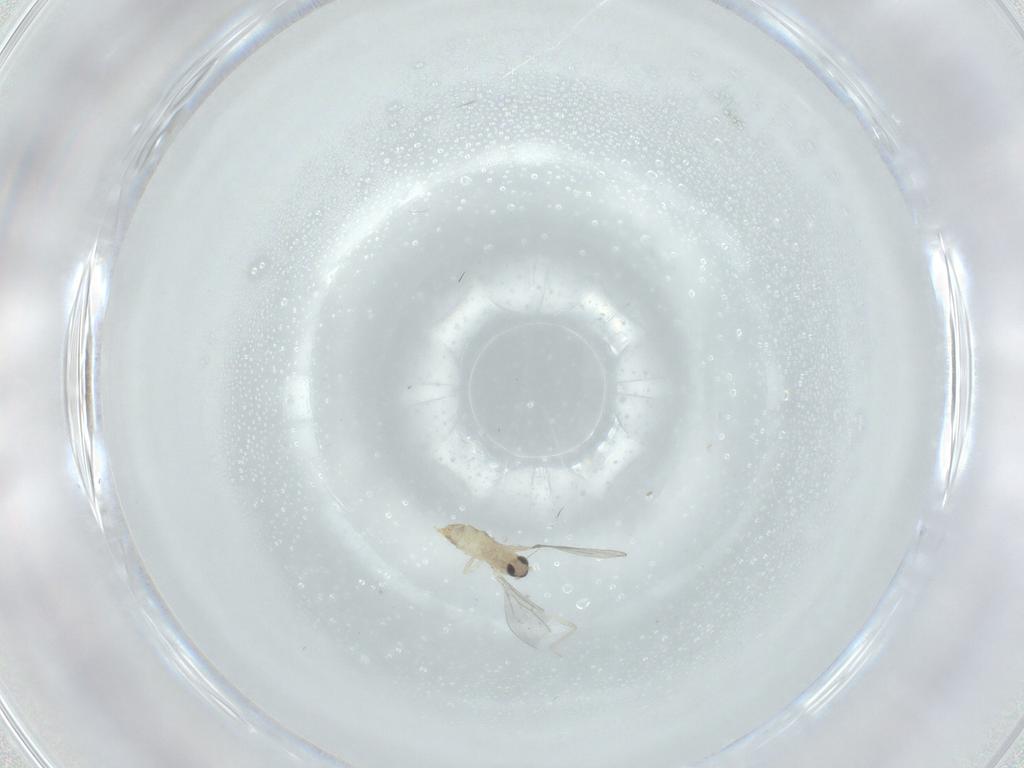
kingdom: Animalia
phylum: Arthropoda
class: Insecta
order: Diptera
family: Cecidomyiidae
